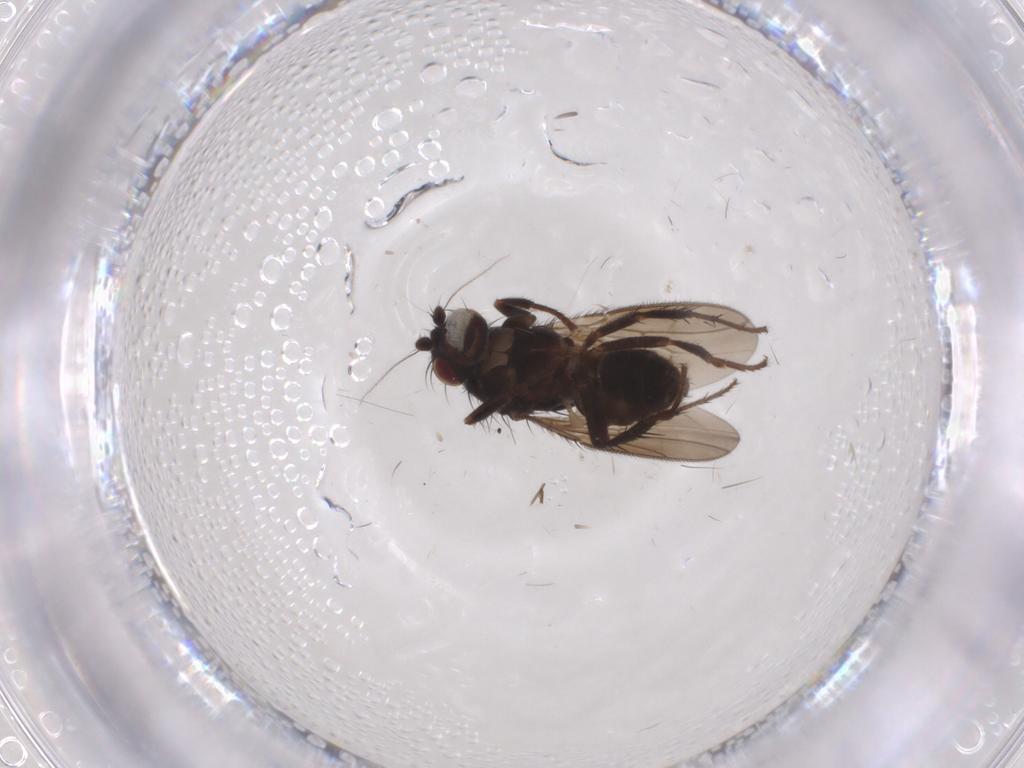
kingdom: Animalia
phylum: Arthropoda
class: Insecta
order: Diptera
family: Sphaeroceridae
